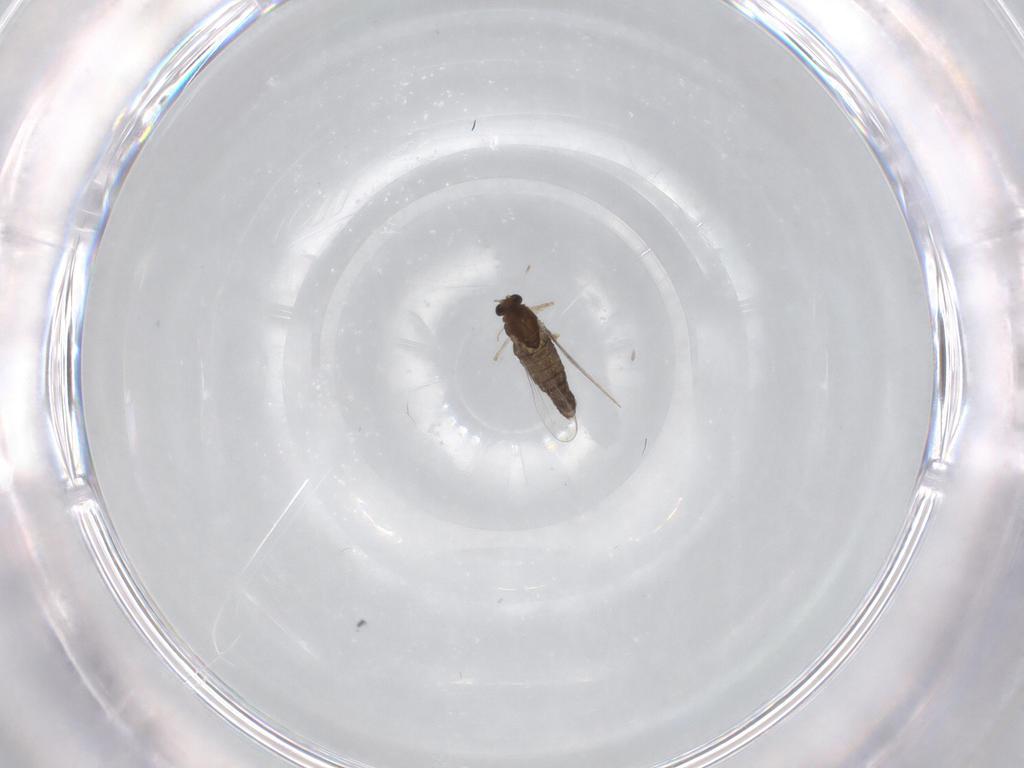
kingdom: Animalia
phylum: Arthropoda
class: Insecta
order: Diptera
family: Cecidomyiidae
